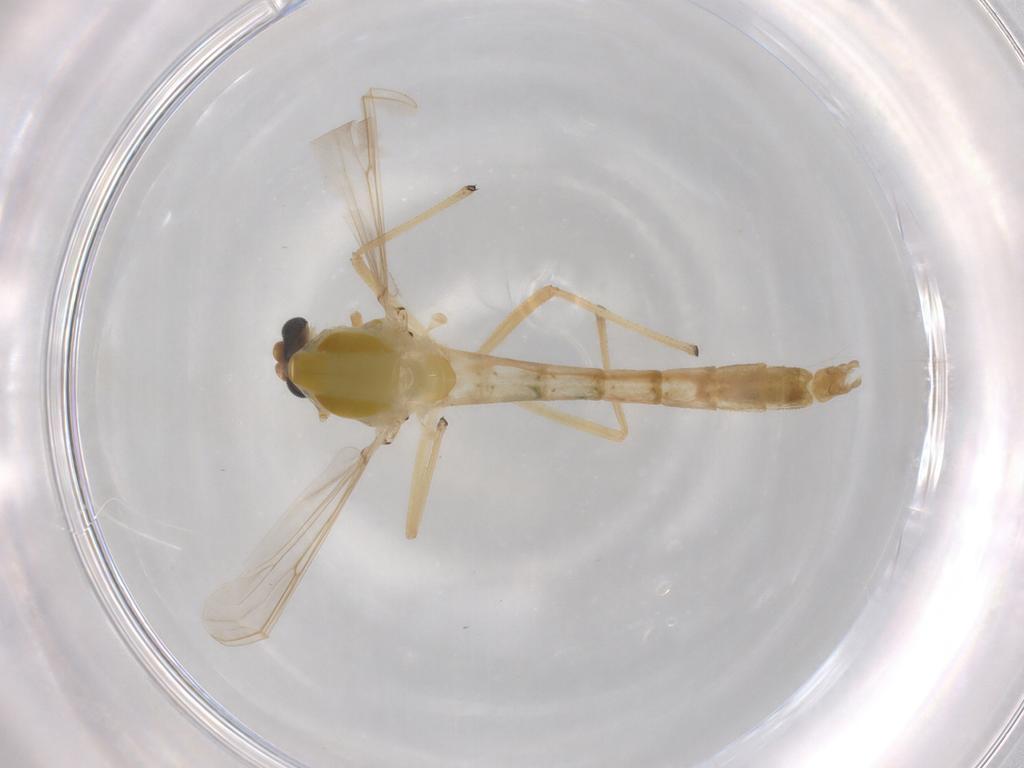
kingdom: Animalia
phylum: Arthropoda
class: Insecta
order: Diptera
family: Chironomidae
